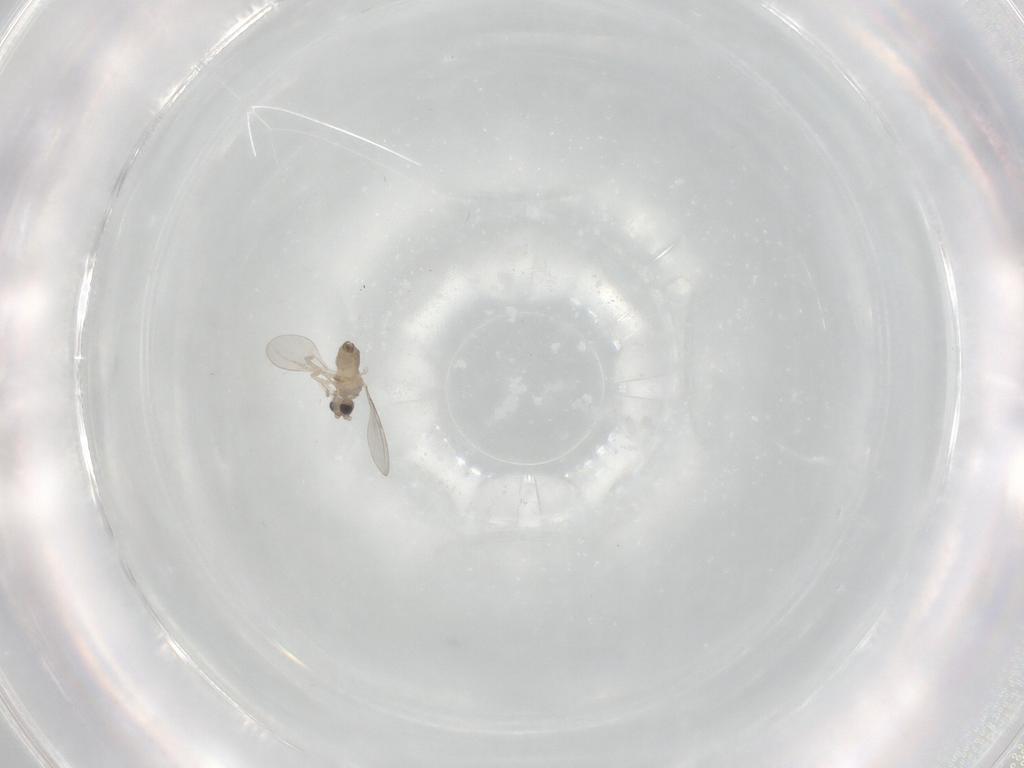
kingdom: Animalia
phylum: Arthropoda
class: Insecta
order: Diptera
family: Cecidomyiidae
